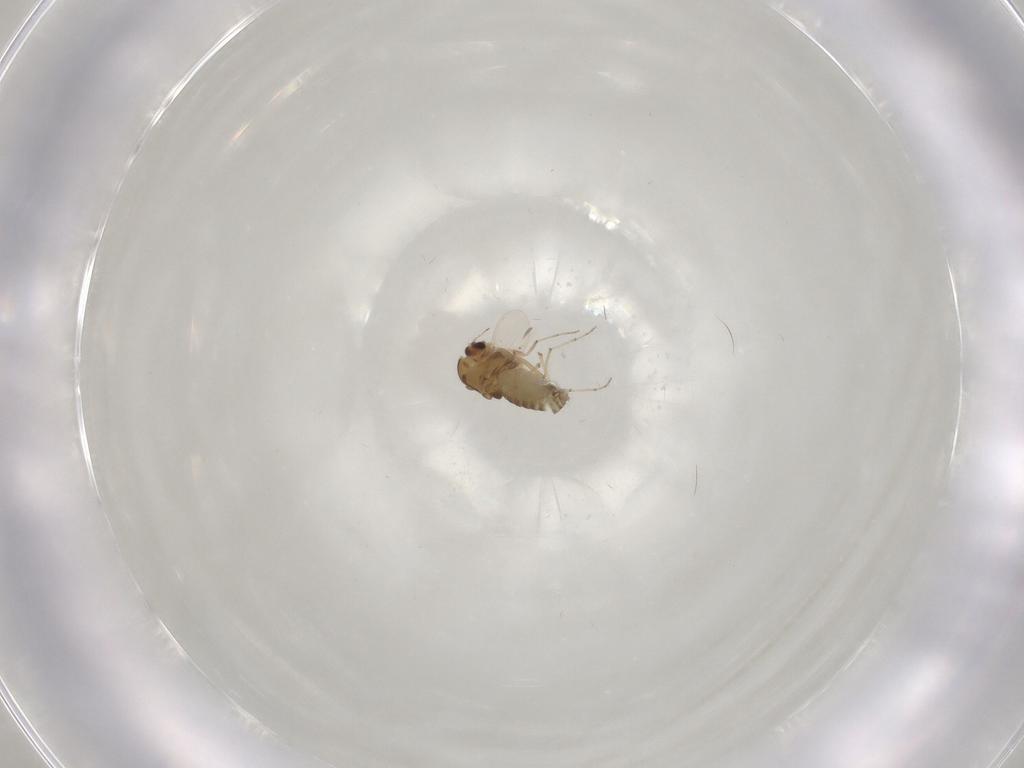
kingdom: Animalia
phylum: Arthropoda
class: Insecta
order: Diptera
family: Chironomidae
